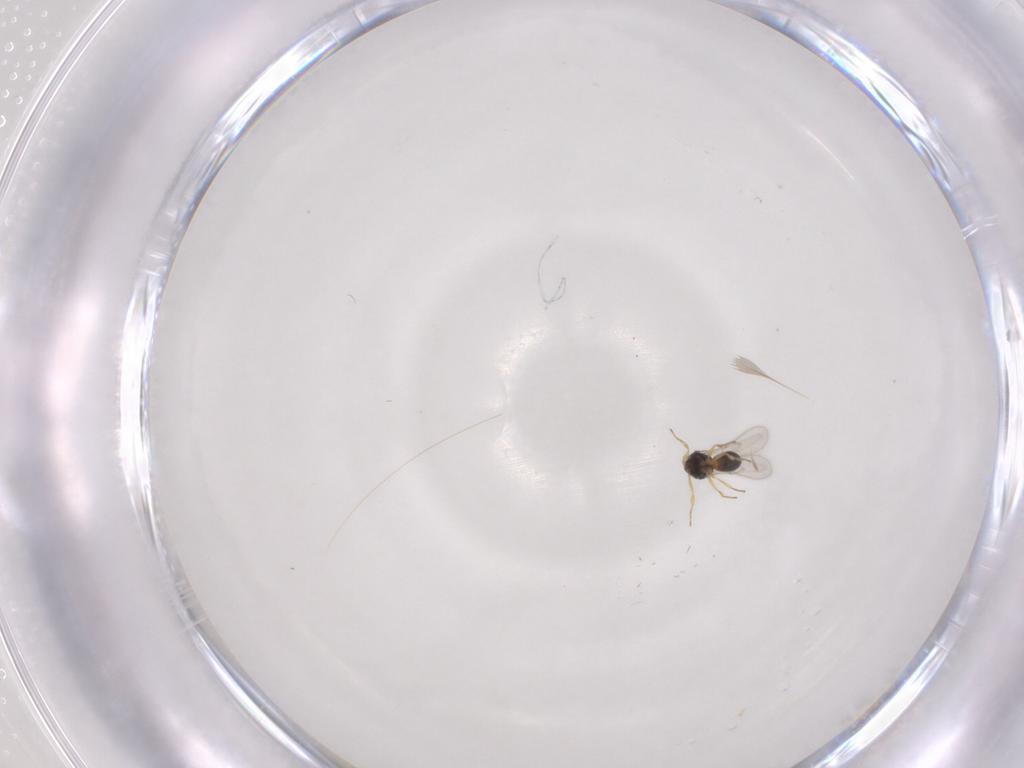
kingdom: Animalia
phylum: Arthropoda
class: Insecta
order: Hymenoptera
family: Scelionidae
